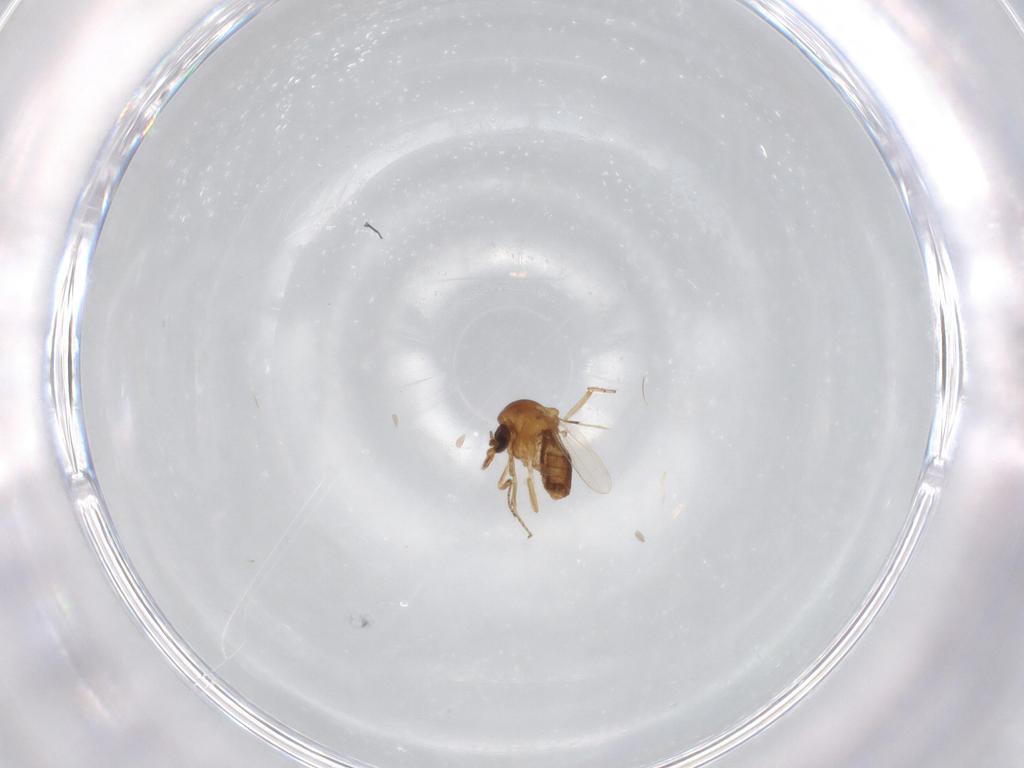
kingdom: Animalia
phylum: Arthropoda
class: Insecta
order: Diptera
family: Ceratopogonidae
